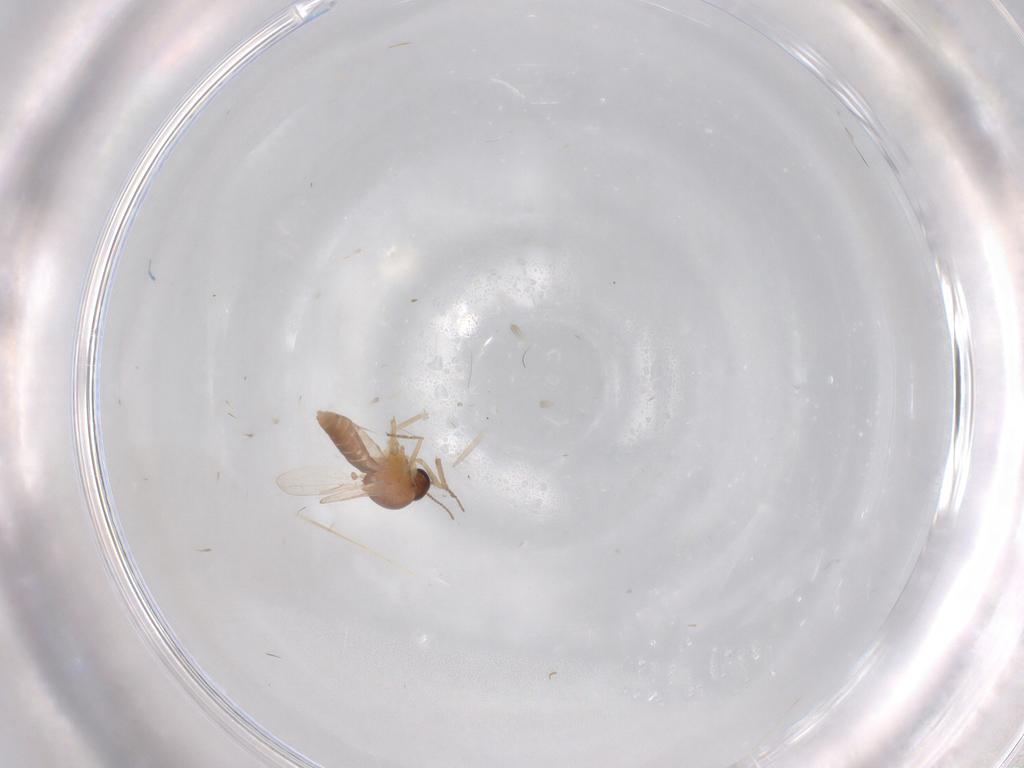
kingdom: Animalia
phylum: Arthropoda
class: Insecta
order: Diptera
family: Ceratopogonidae
